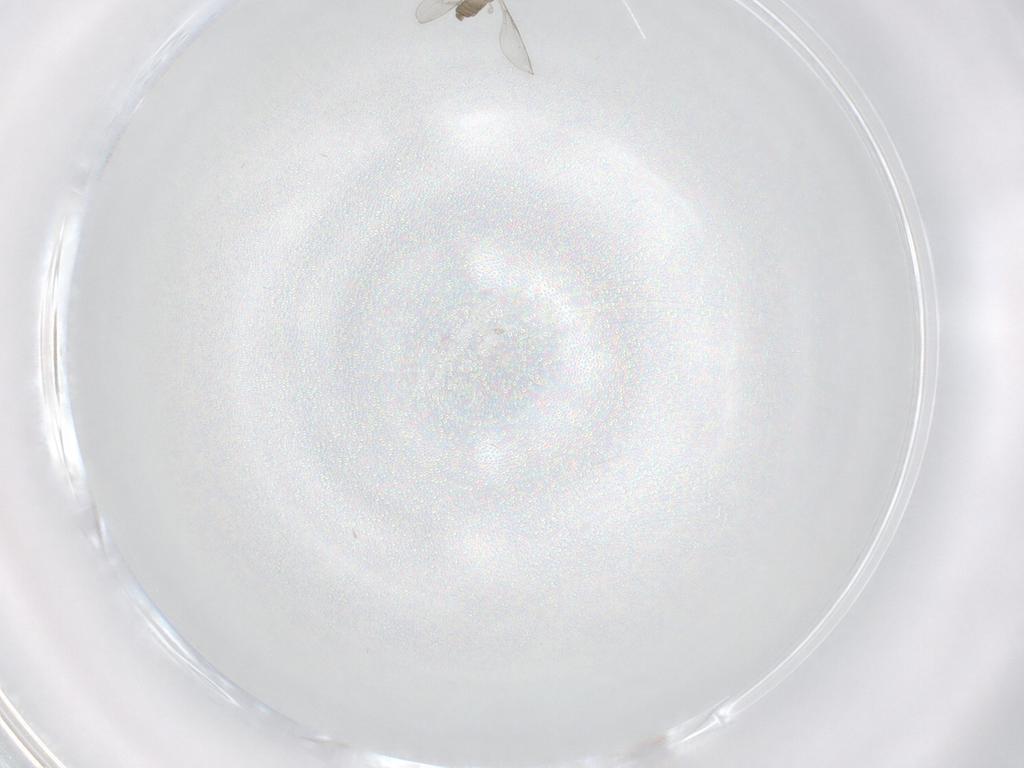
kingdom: Animalia
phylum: Arthropoda
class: Insecta
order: Diptera
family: Cecidomyiidae
